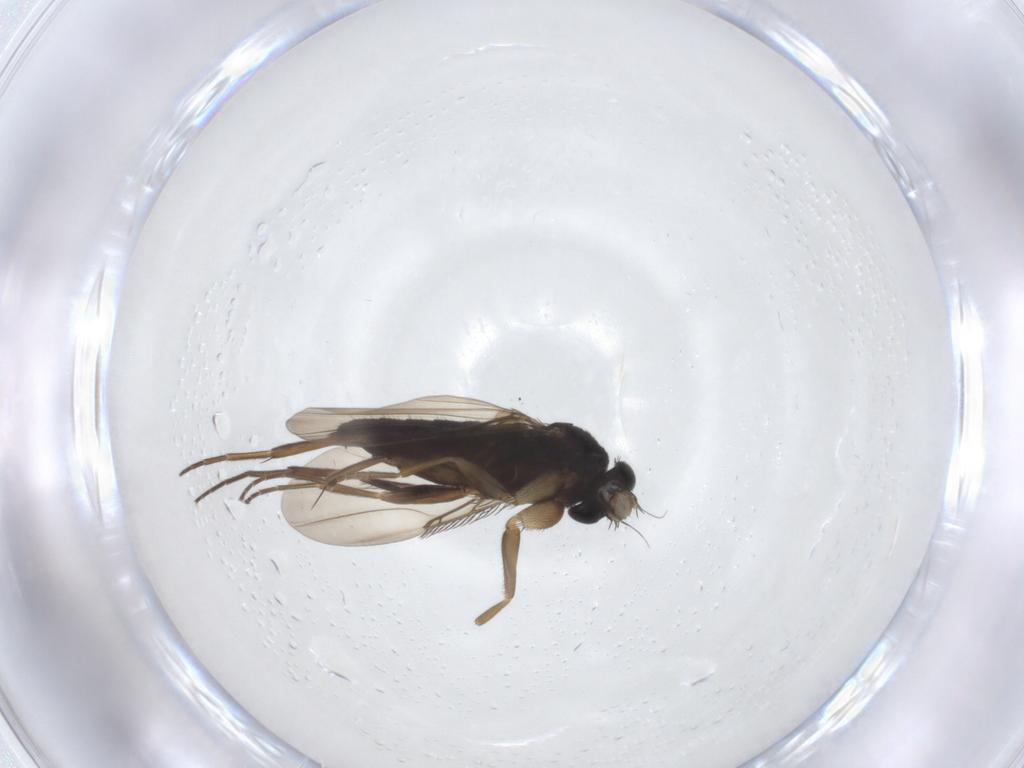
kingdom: Animalia
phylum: Arthropoda
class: Insecta
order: Diptera
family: Phoridae
